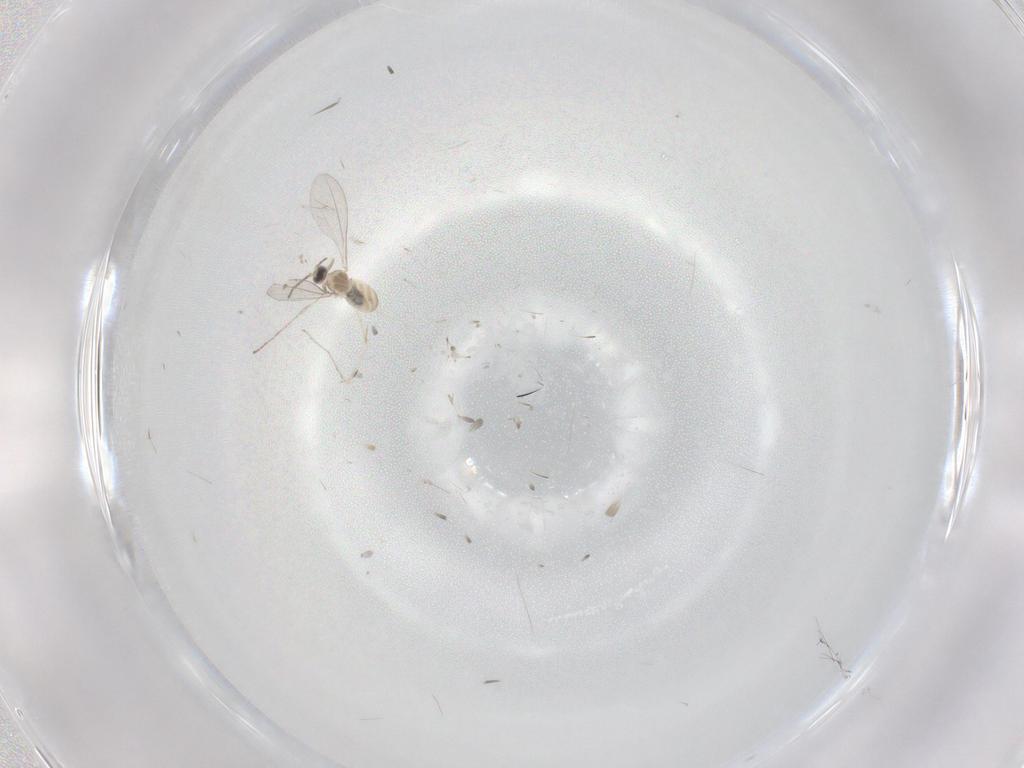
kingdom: Animalia
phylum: Arthropoda
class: Insecta
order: Diptera
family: Cecidomyiidae
